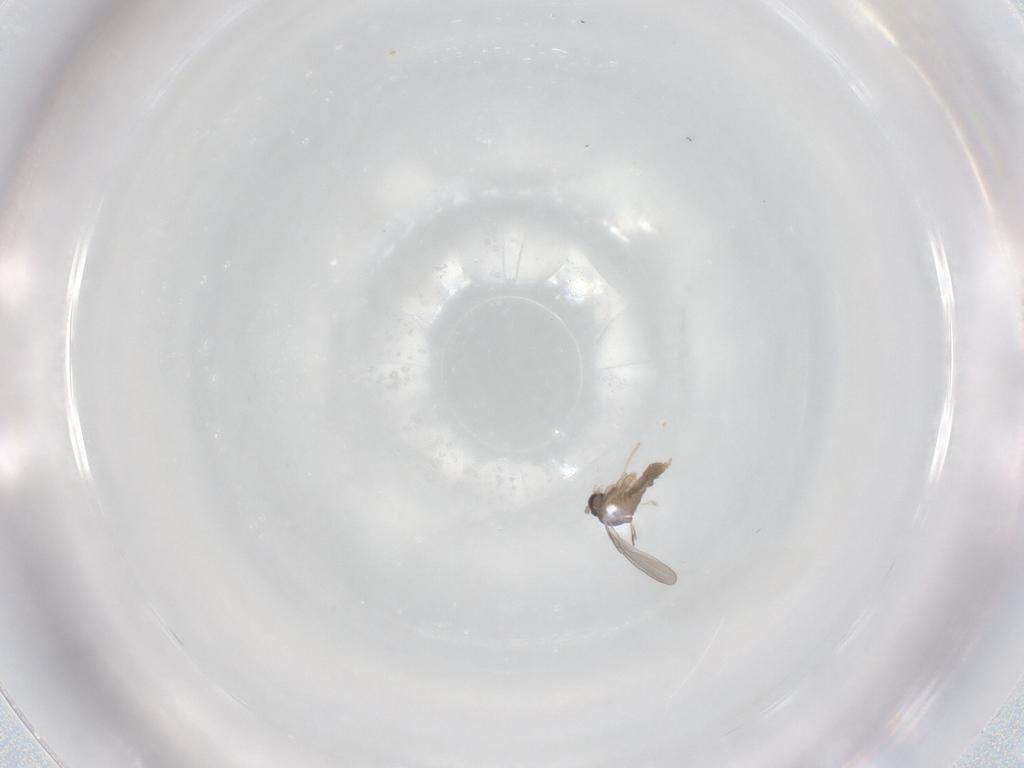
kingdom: Animalia
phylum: Arthropoda
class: Insecta
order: Diptera
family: Cecidomyiidae
